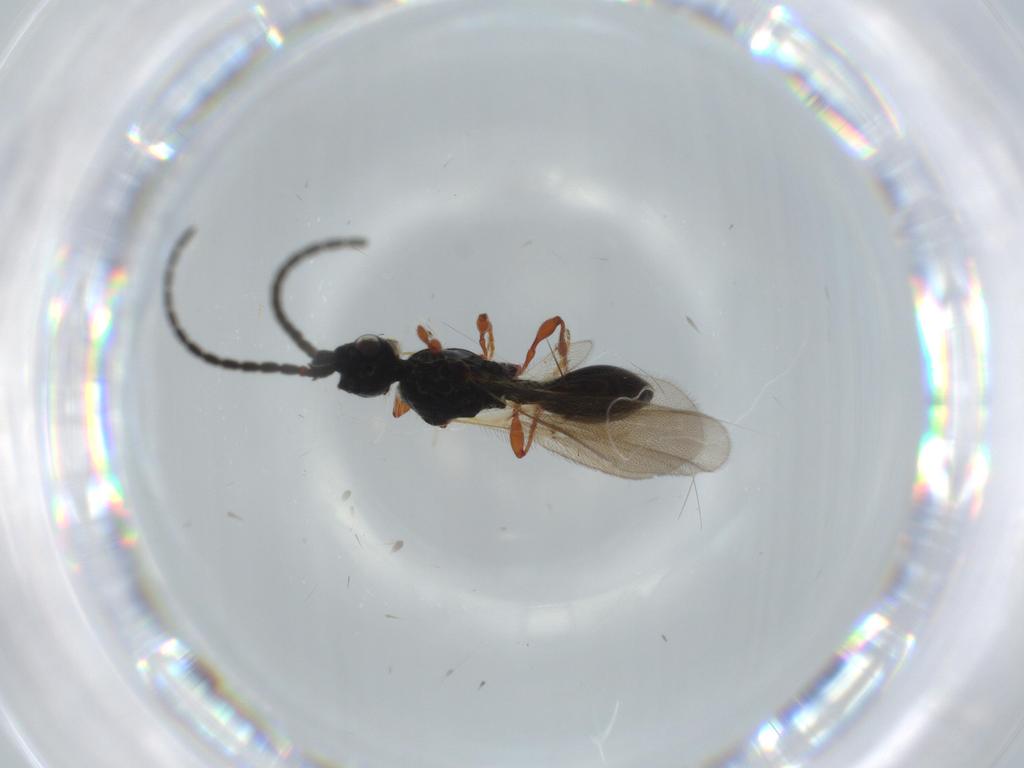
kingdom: Animalia
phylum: Arthropoda
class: Insecta
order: Hymenoptera
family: Diapriidae
